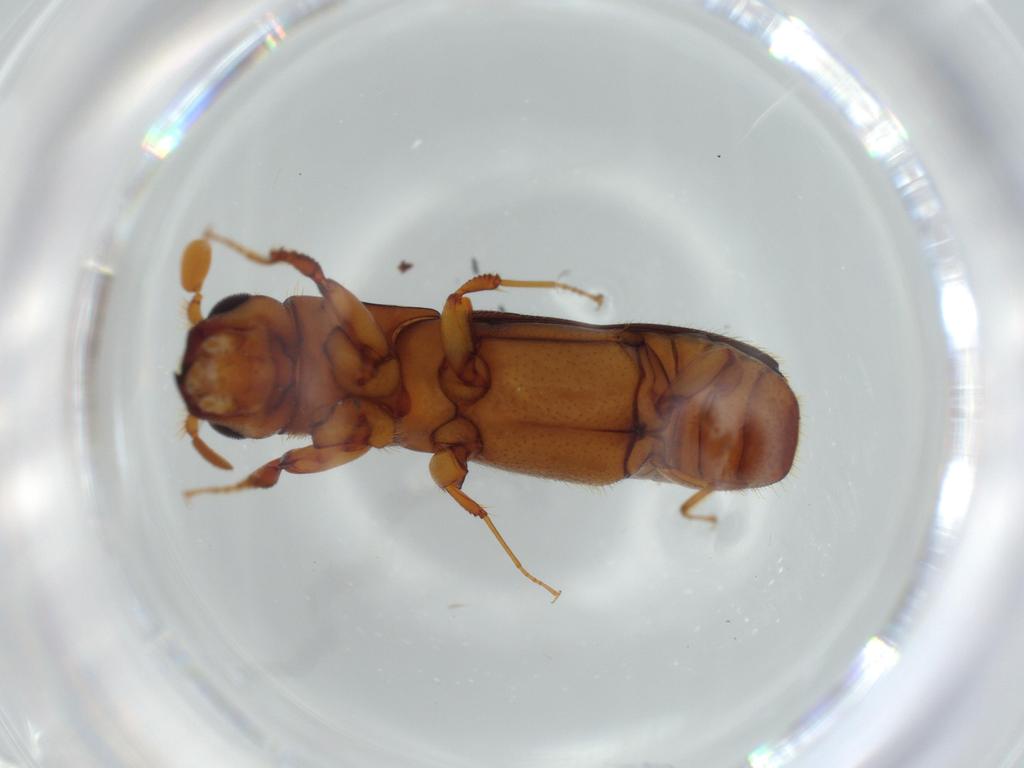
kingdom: Animalia
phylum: Arthropoda
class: Insecta
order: Coleoptera
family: Curculionidae
